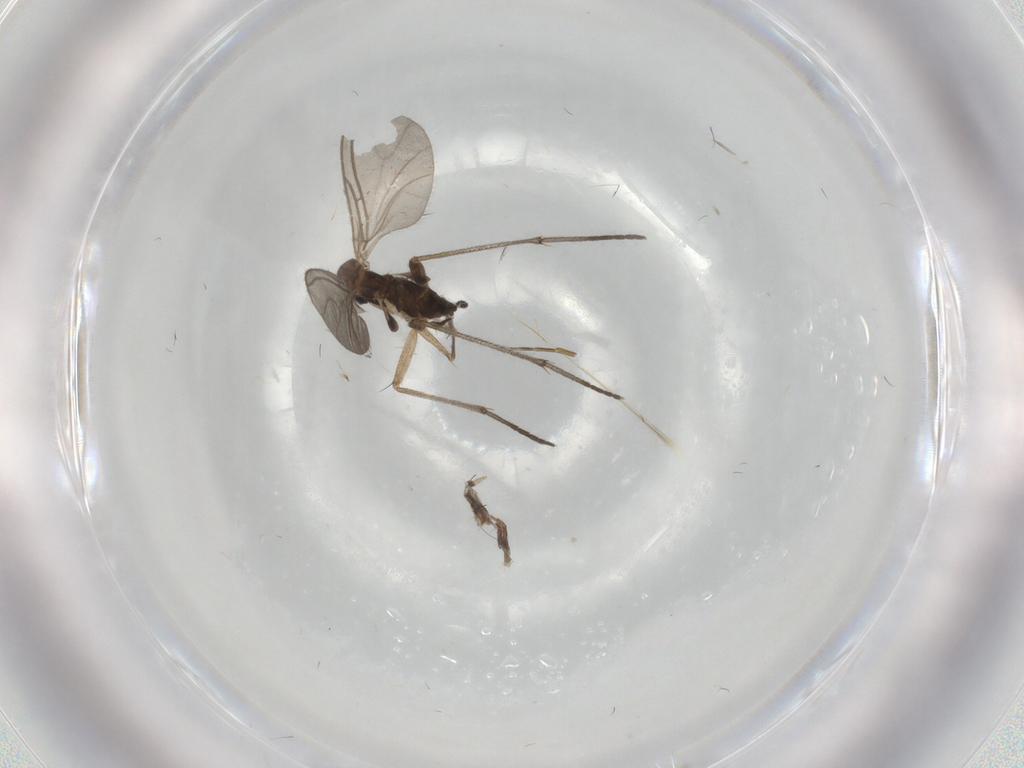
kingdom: Animalia
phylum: Arthropoda
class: Insecta
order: Diptera
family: Sciaridae
